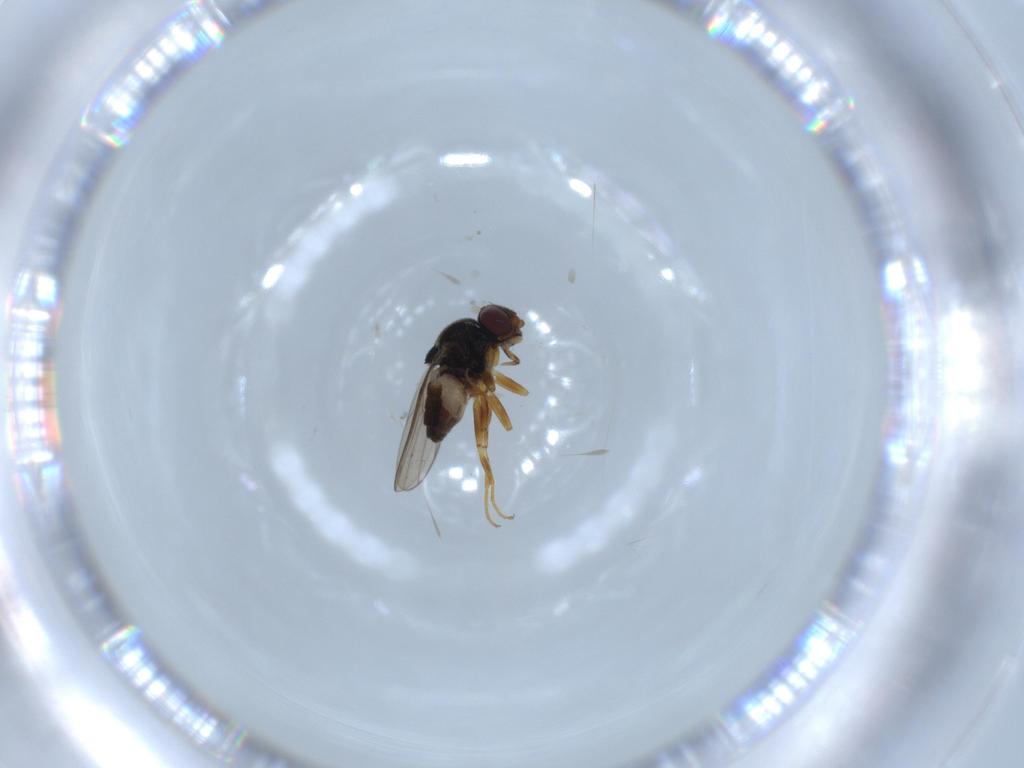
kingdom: Animalia
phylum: Arthropoda
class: Insecta
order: Diptera
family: Chloropidae
